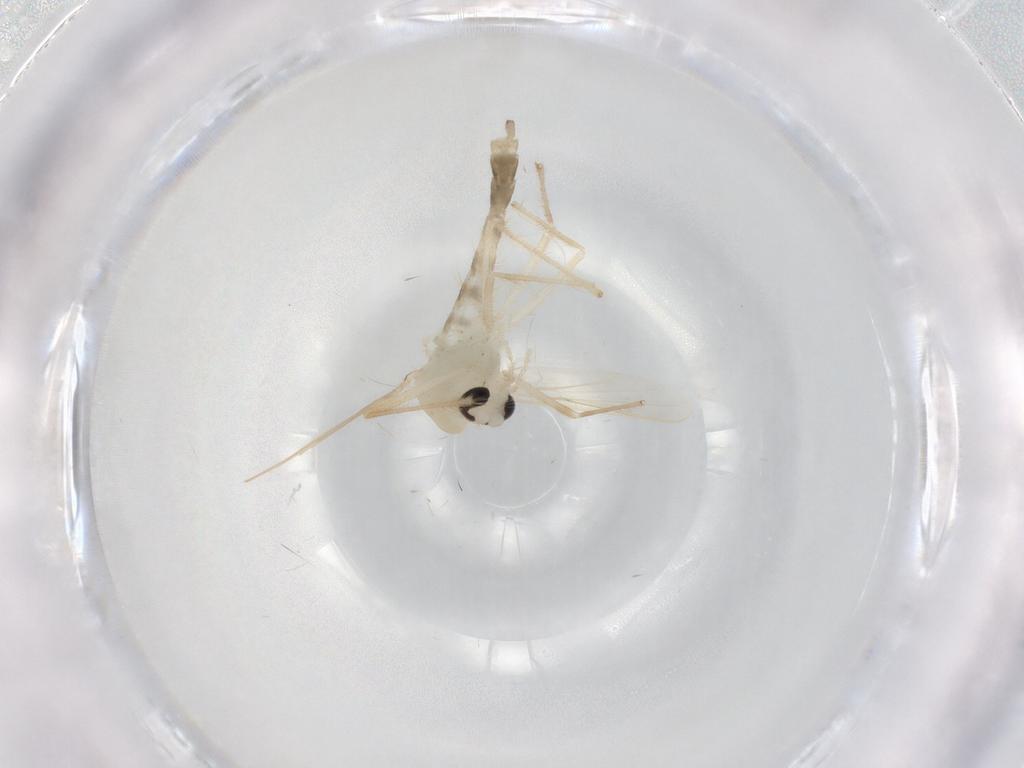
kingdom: Animalia
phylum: Arthropoda
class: Insecta
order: Diptera
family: Chironomidae
